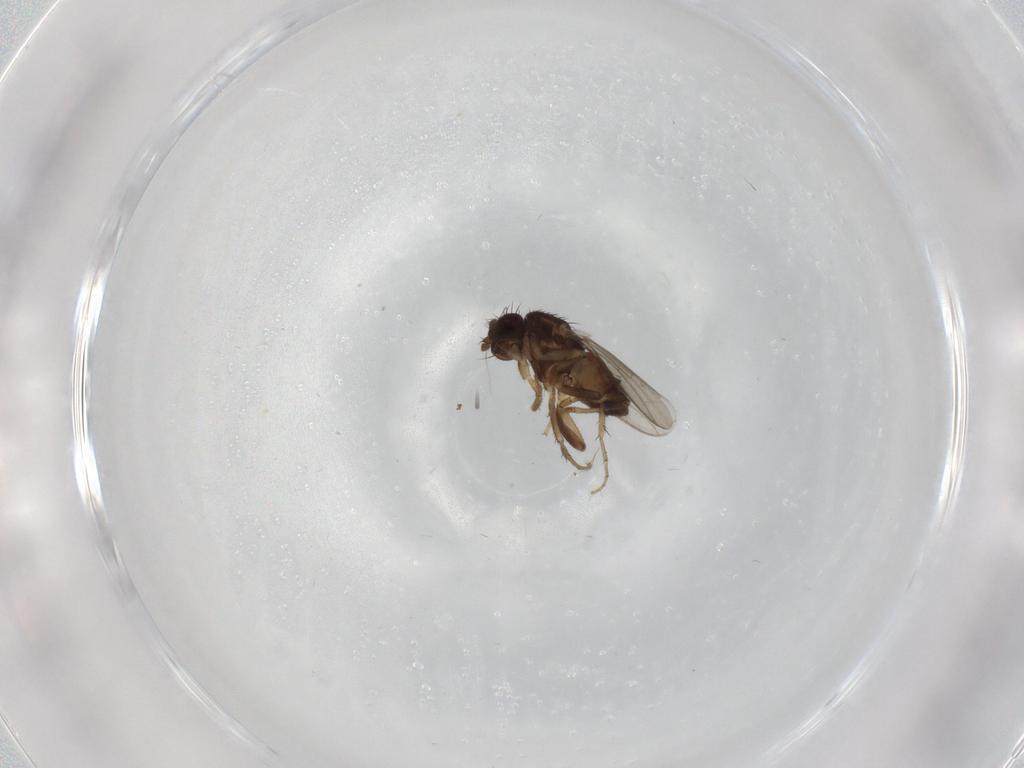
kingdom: Animalia
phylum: Arthropoda
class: Insecta
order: Diptera
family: Sphaeroceridae
